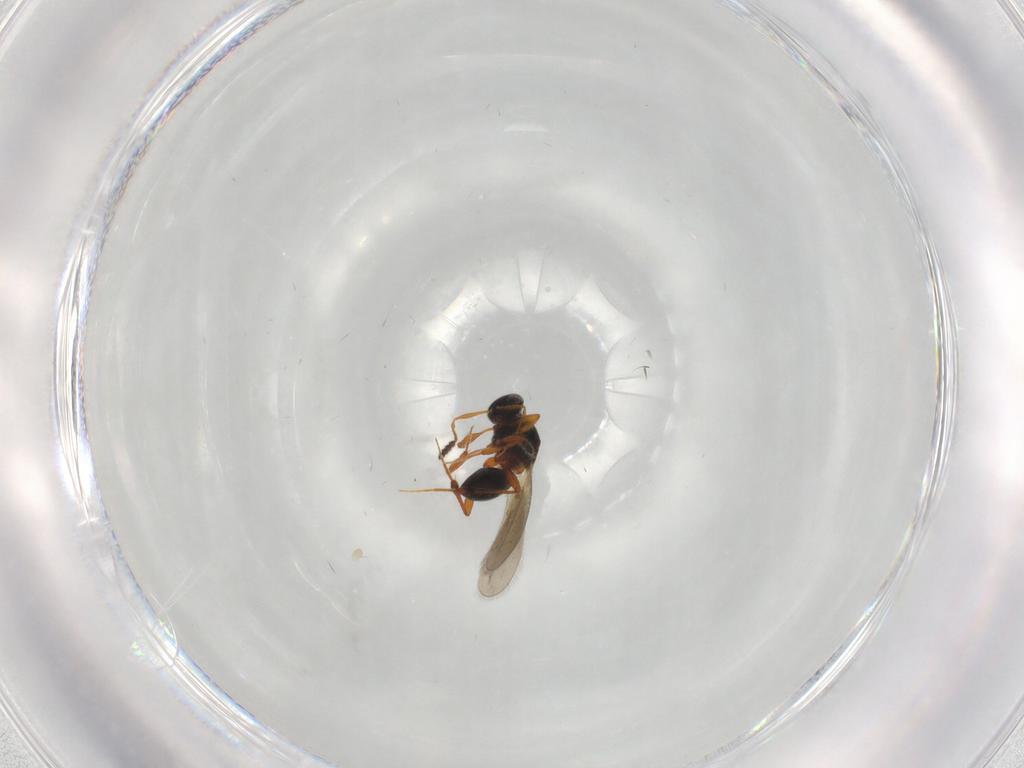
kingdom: Animalia
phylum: Arthropoda
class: Insecta
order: Hymenoptera
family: Platygastridae
